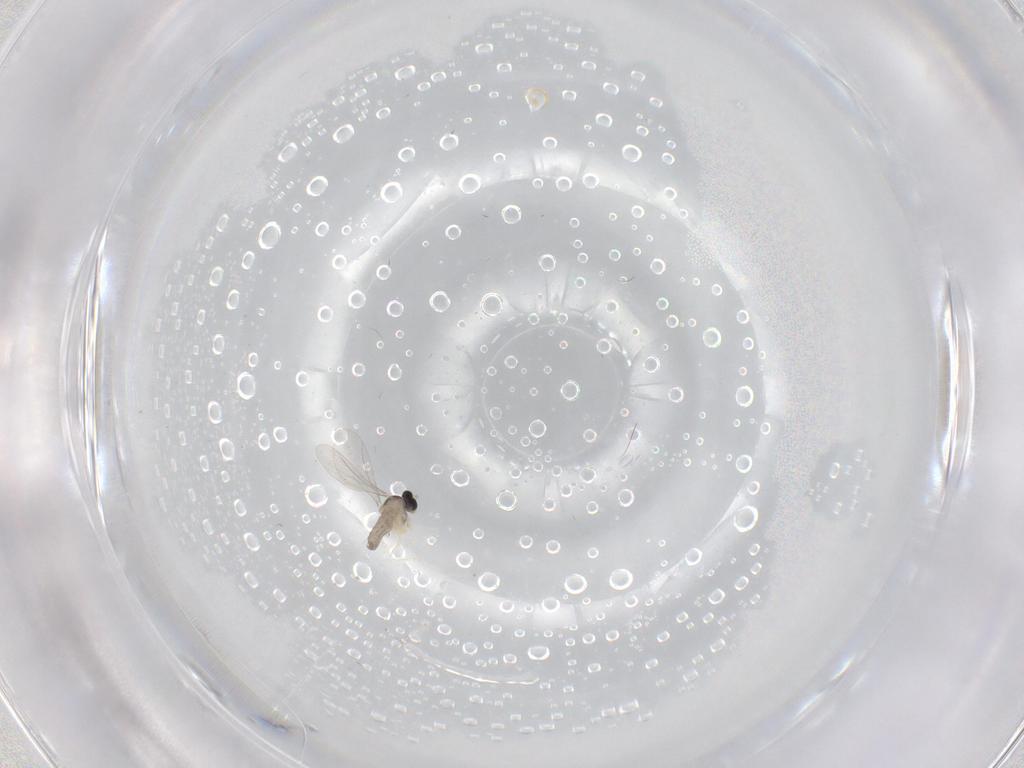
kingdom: Animalia
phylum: Arthropoda
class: Insecta
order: Diptera
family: Cecidomyiidae
